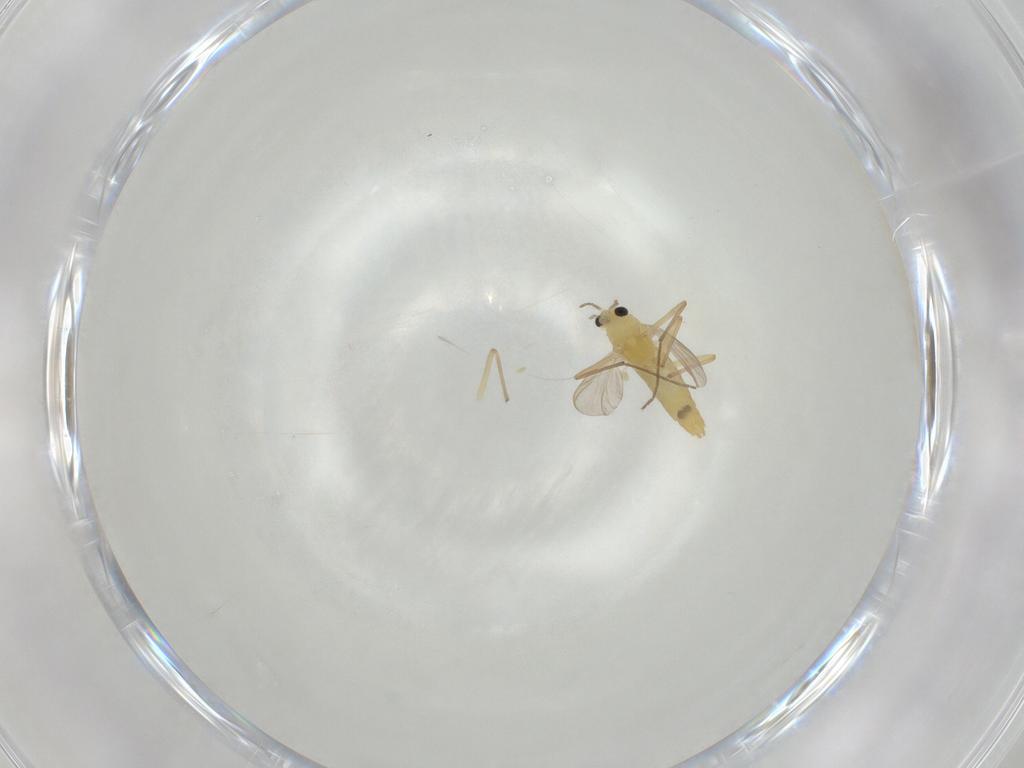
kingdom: Animalia
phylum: Arthropoda
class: Insecta
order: Diptera
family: Chironomidae
